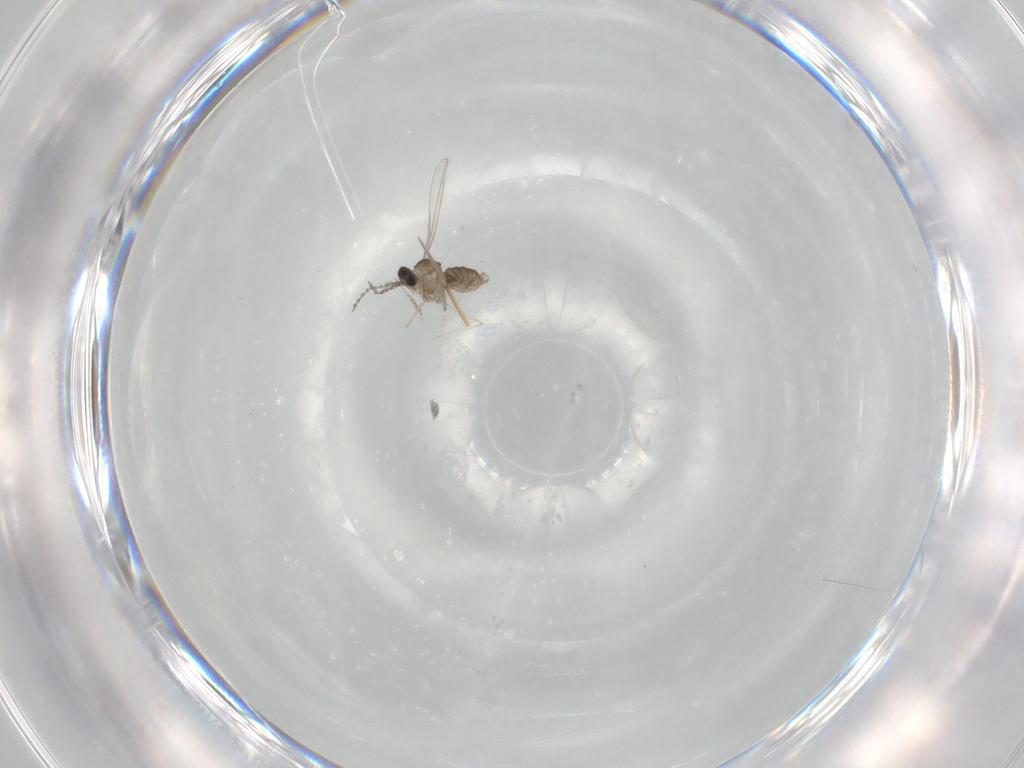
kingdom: Animalia
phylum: Arthropoda
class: Insecta
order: Diptera
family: Cecidomyiidae
